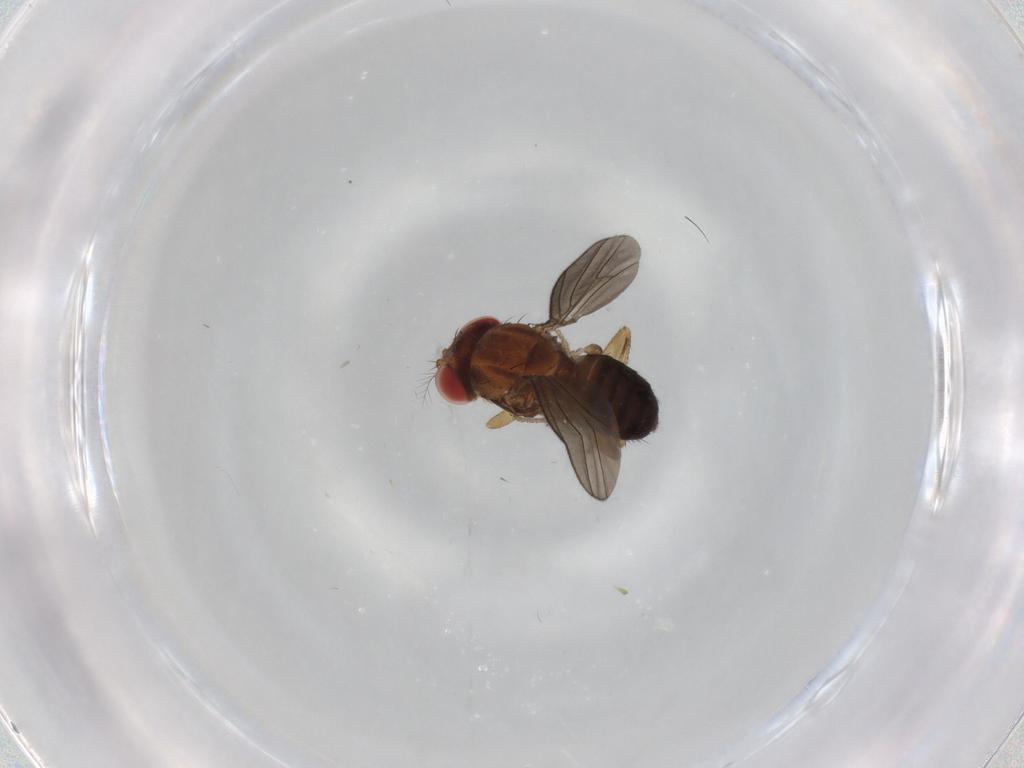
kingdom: Animalia
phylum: Arthropoda
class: Insecta
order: Diptera
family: Drosophilidae
